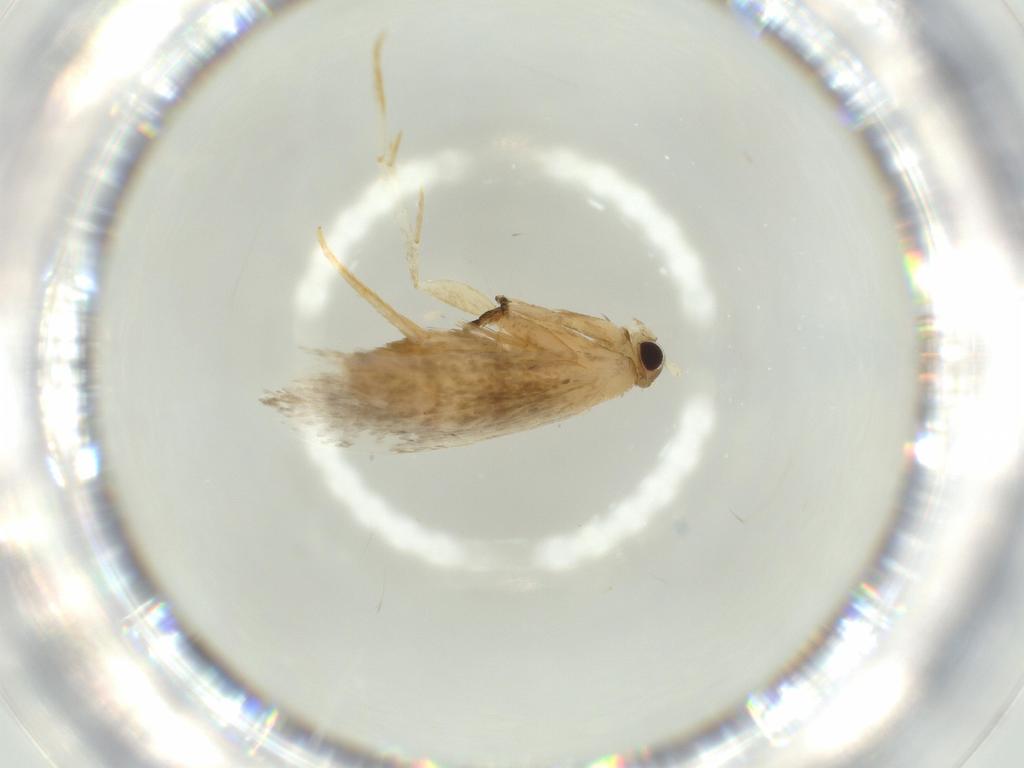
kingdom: Animalia
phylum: Arthropoda
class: Insecta
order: Lepidoptera
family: Tineidae
